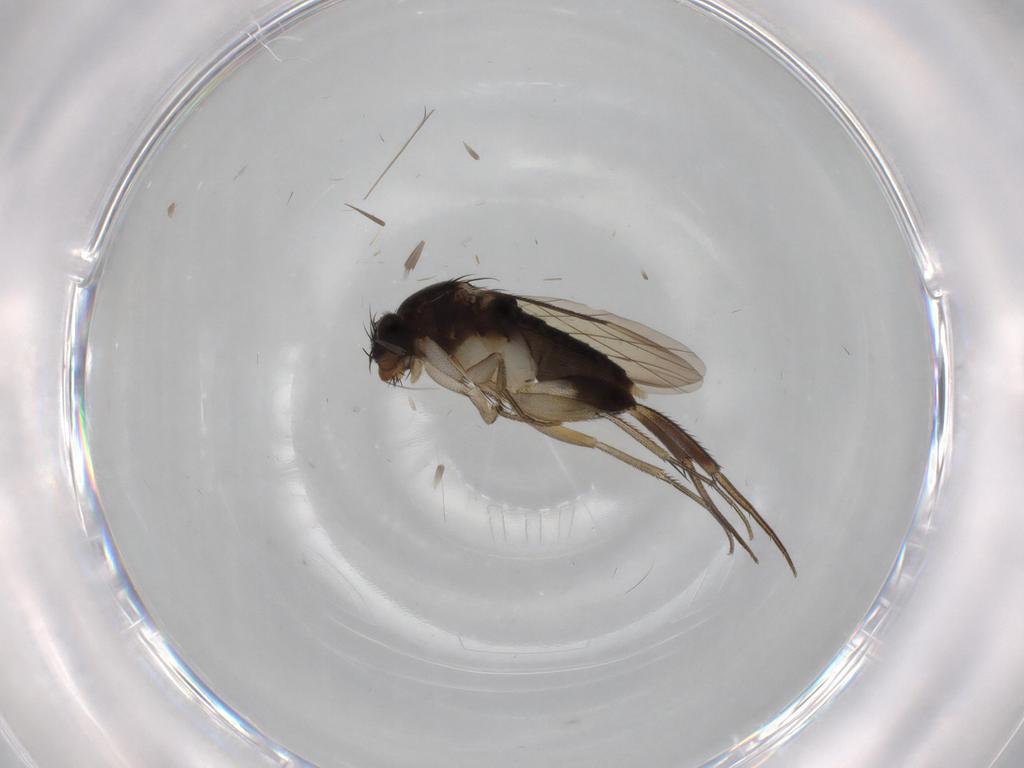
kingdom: Animalia
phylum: Arthropoda
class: Insecta
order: Diptera
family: Phoridae
